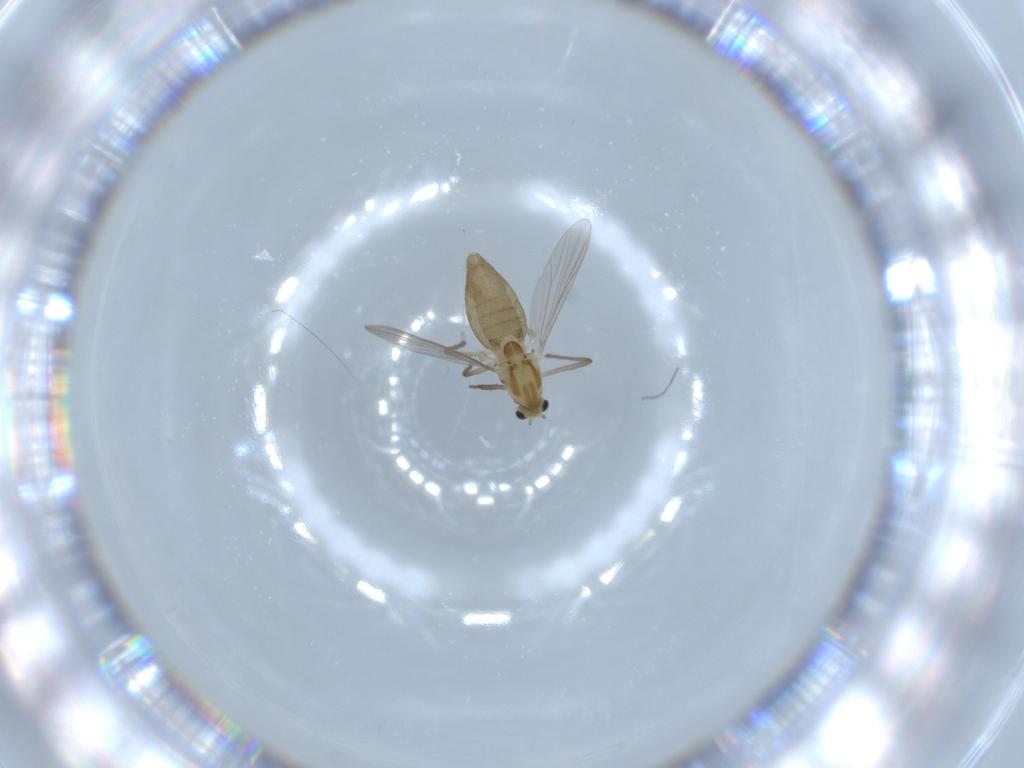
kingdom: Animalia
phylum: Arthropoda
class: Insecta
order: Diptera
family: Chironomidae
